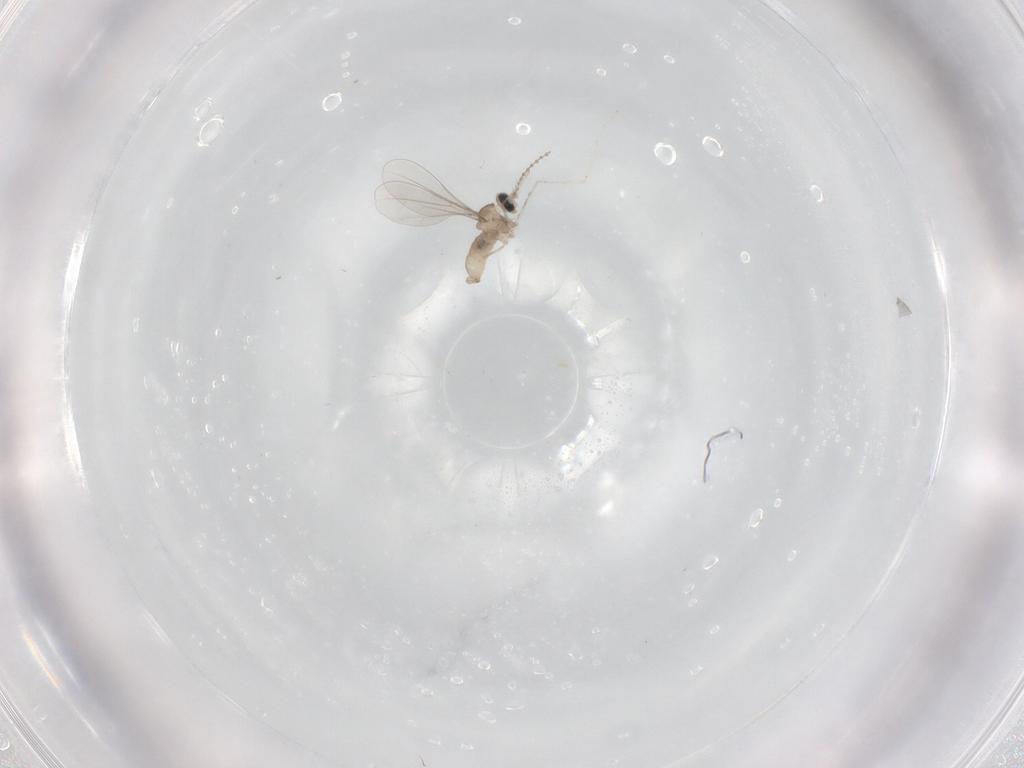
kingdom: Animalia
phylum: Arthropoda
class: Insecta
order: Diptera
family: Cecidomyiidae
